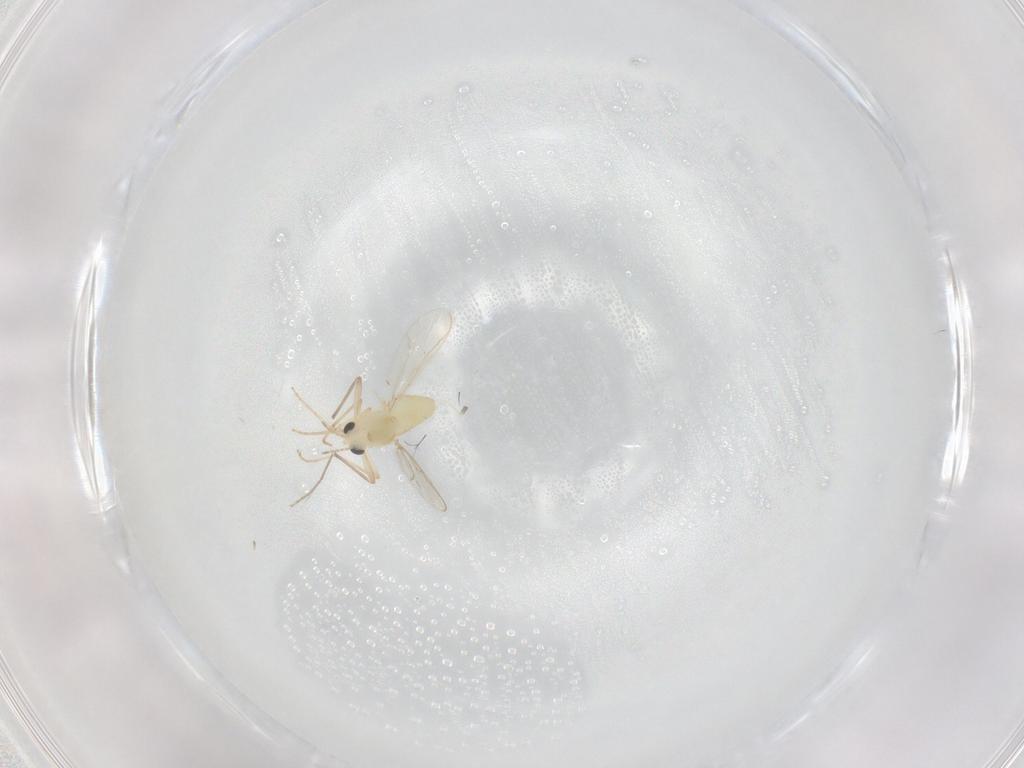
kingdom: Animalia
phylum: Arthropoda
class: Insecta
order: Diptera
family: Chironomidae
